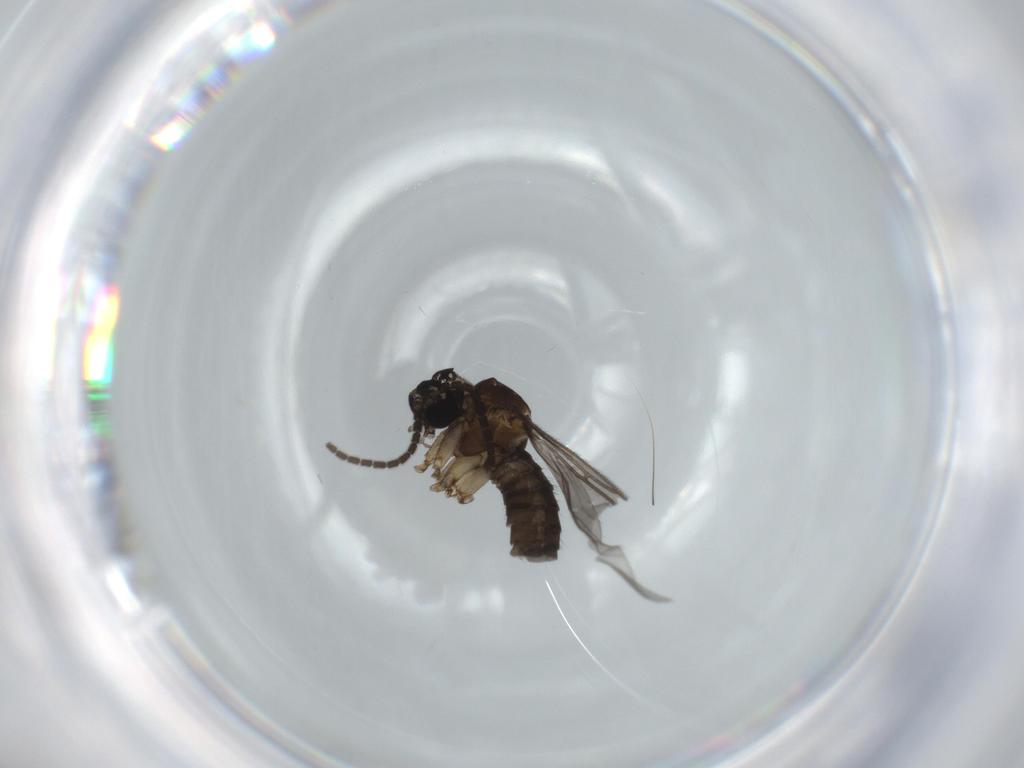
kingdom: Animalia
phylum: Arthropoda
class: Insecta
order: Diptera
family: Sciaridae
